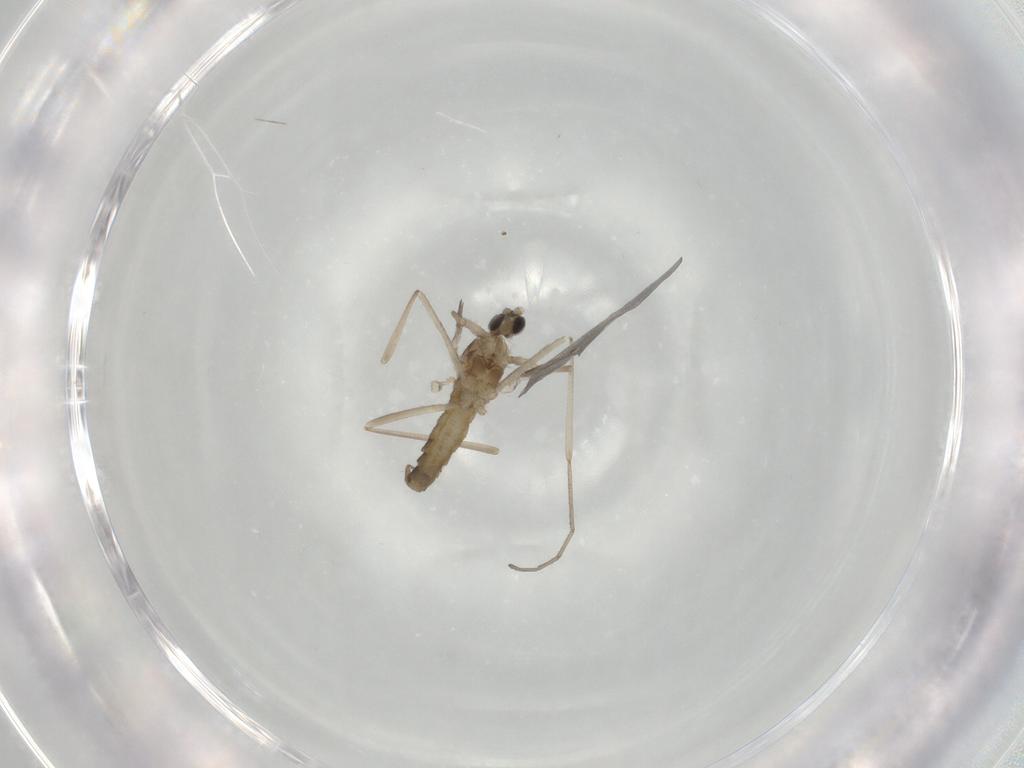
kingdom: Animalia
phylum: Arthropoda
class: Insecta
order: Diptera
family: Cecidomyiidae
